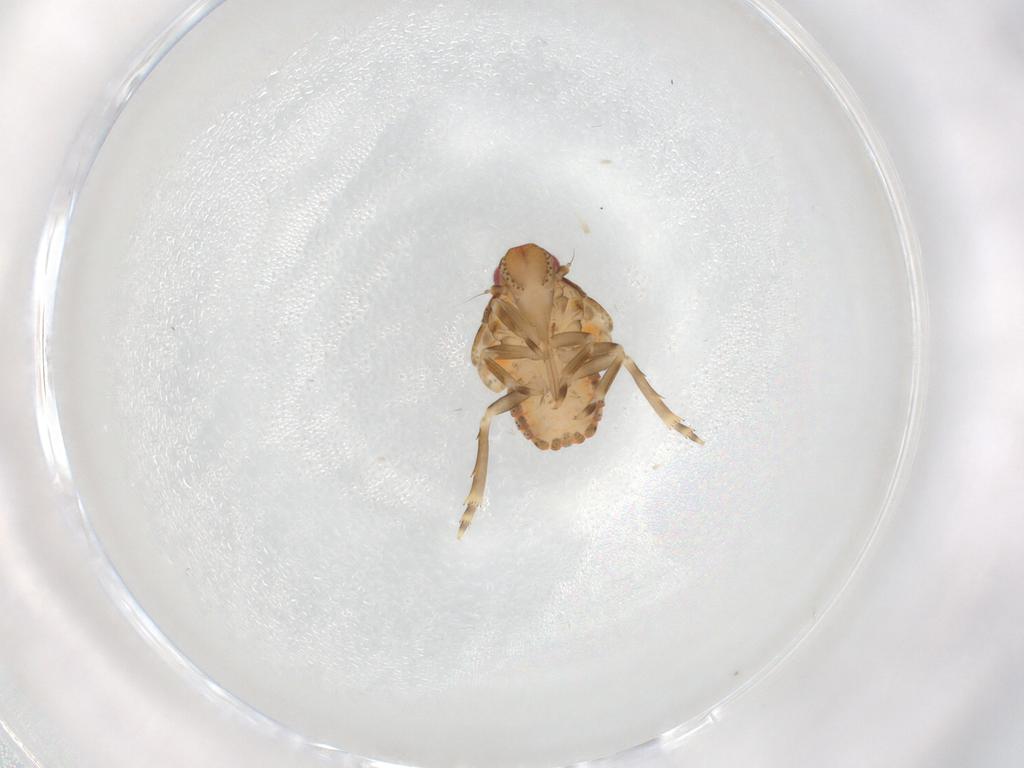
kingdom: Animalia
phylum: Arthropoda
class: Insecta
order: Hemiptera
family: Flatidae
